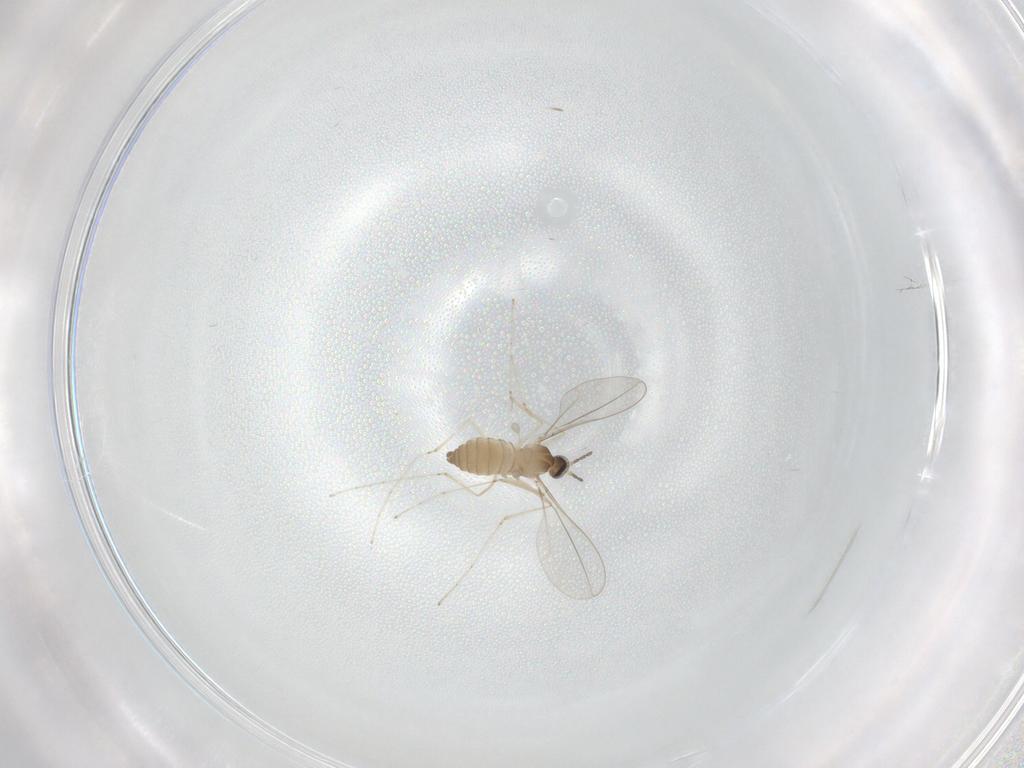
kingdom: Animalia
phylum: Arthropoda
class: Insecta
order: Diptera
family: Cecidomyiidae
